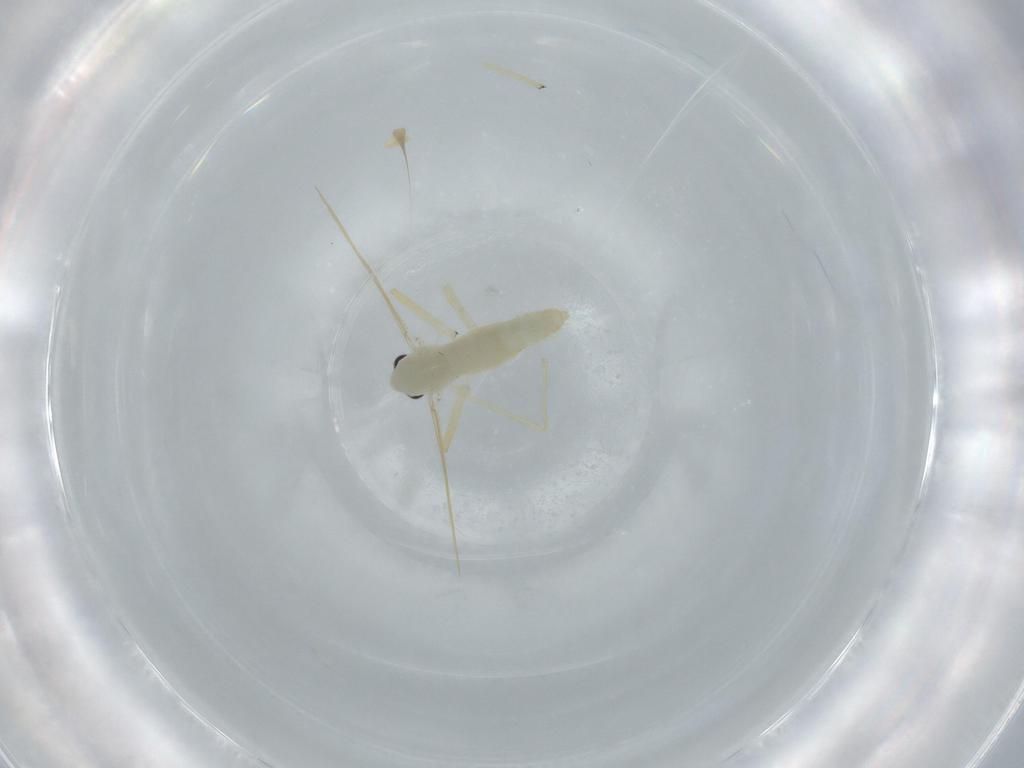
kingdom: Animalia
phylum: Arthropoda
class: Insecta
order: Diptera
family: Chironomidae
